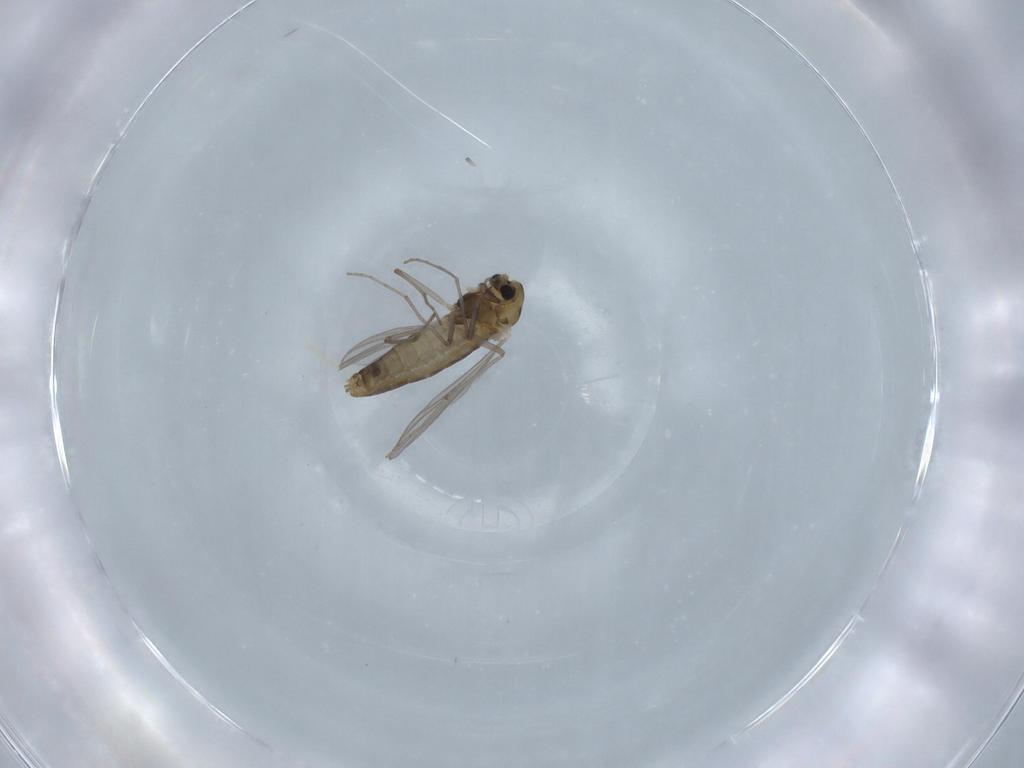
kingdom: Animalia
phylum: Arthropoda
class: Insecta
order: Diptera
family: Chironomidae
